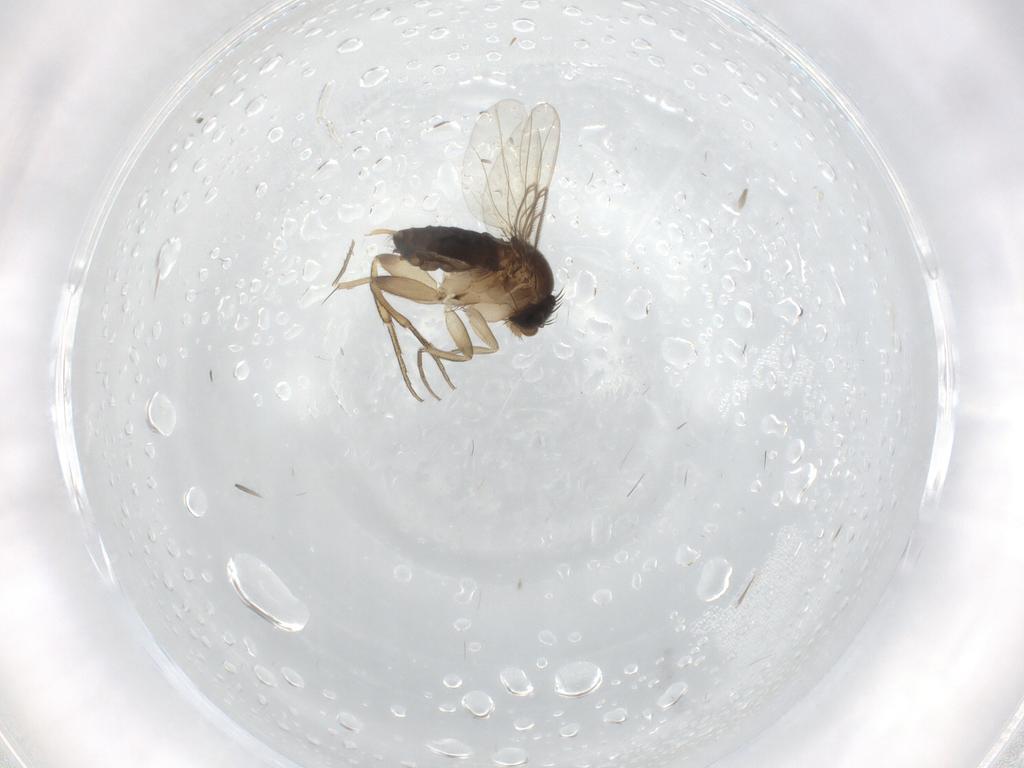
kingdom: Animalia
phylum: Arthropoda
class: Insecta
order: Diptera
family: Phoridae
